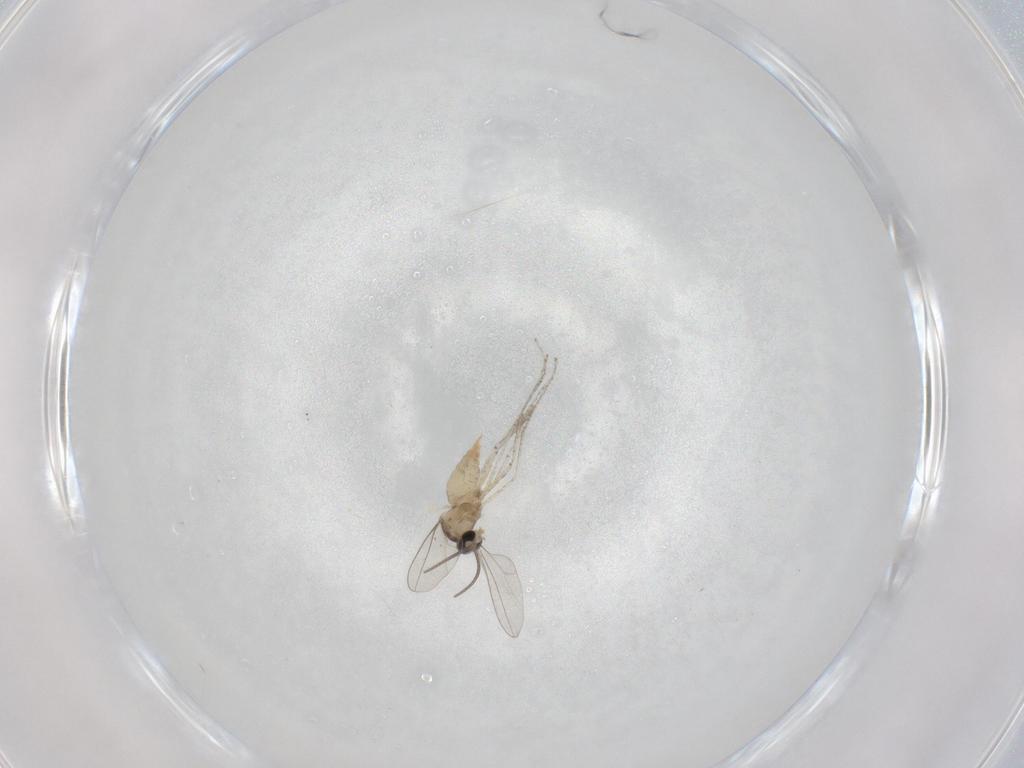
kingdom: Animalia
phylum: Arthropoda
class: Insecta
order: Diptera
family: Cecidomyiidae
